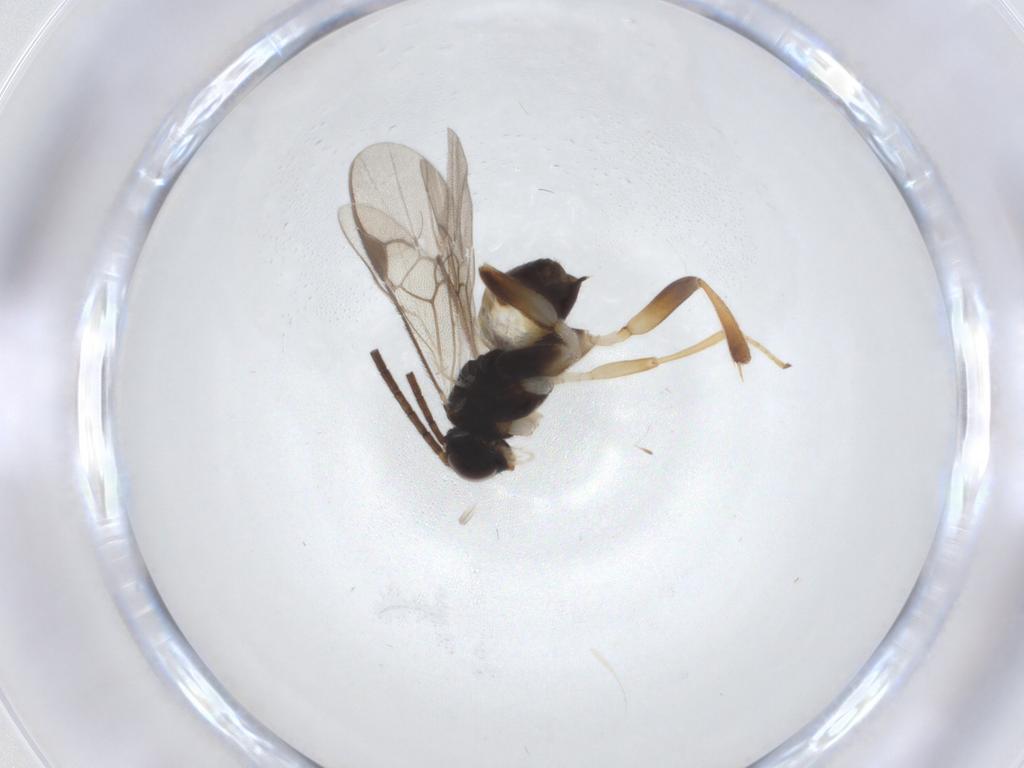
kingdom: Animalia
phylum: Arthropoda
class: Insecta
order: Hymenoptera
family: Braconidae
